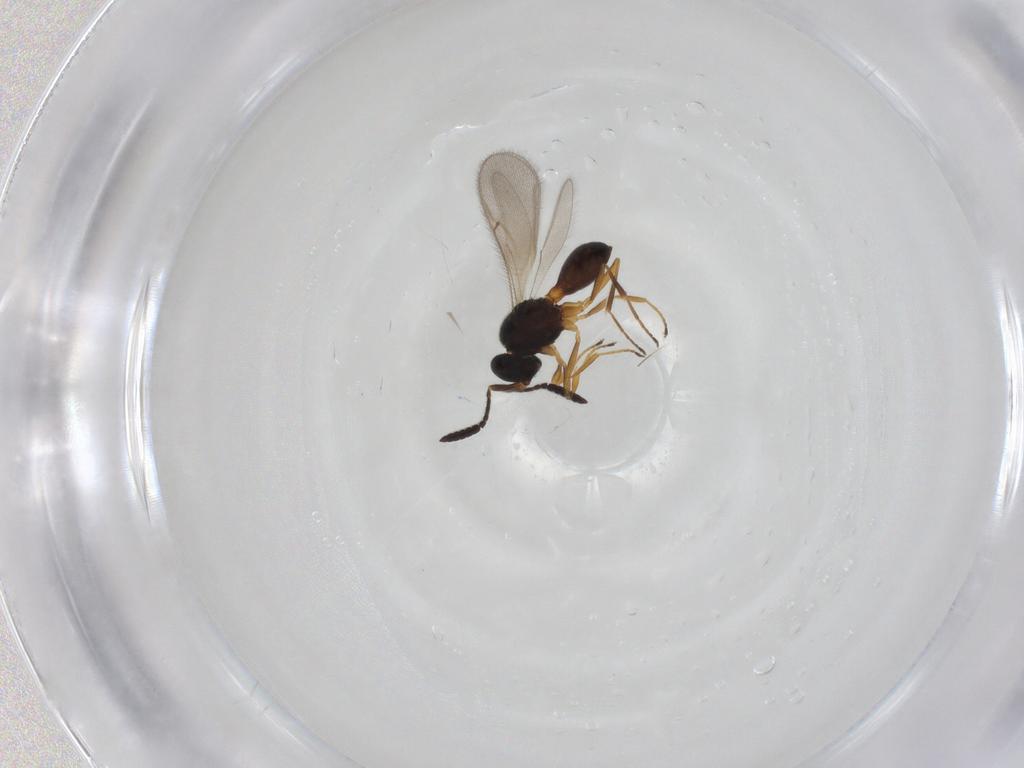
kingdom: Animalia
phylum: Arthropoda
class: Insecta
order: Hymenoptera
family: Scelionidae
